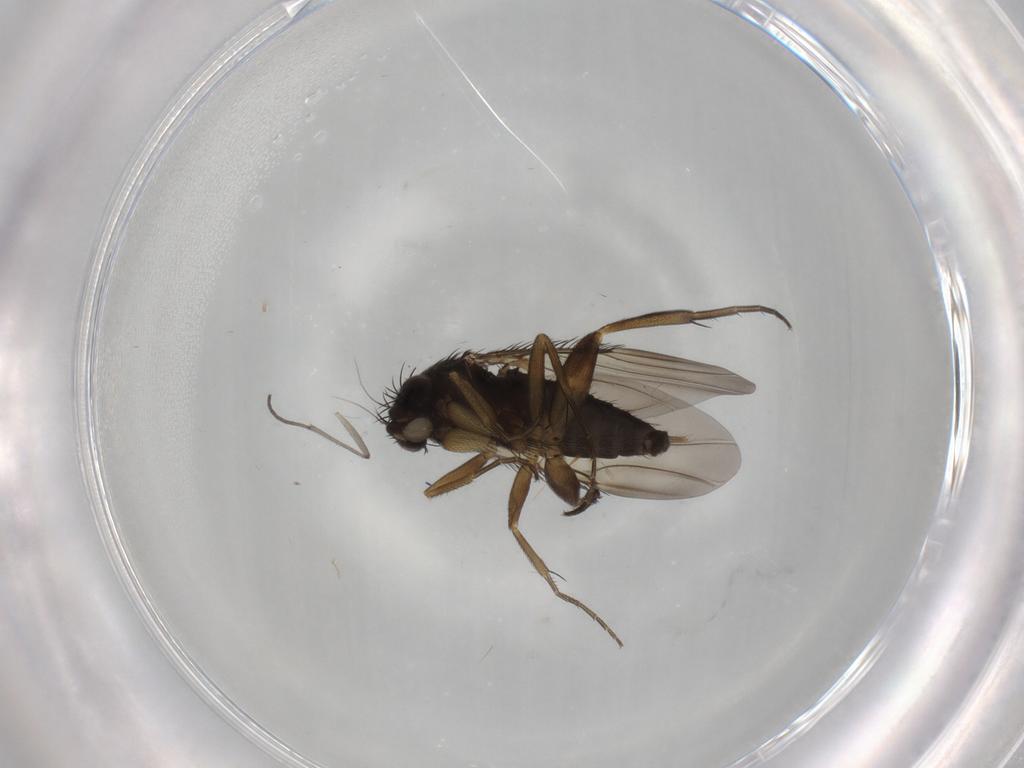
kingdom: Animalia
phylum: Arthropoda
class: Insecta
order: Diptera
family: Phoridae
